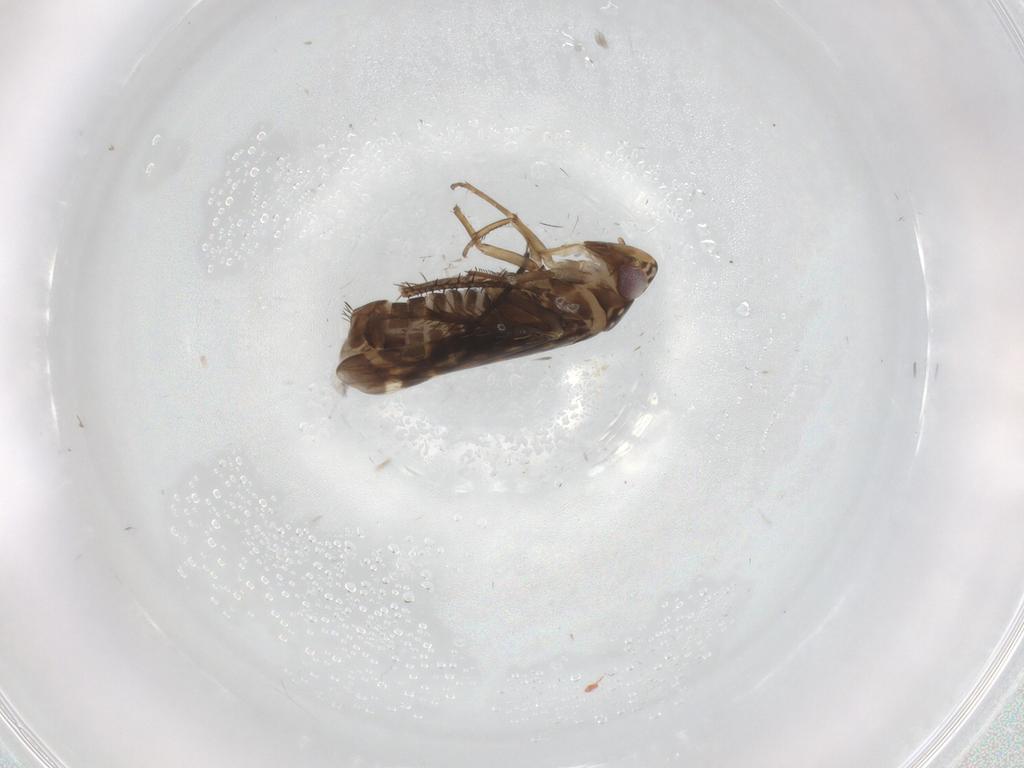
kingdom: Animalia
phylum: Arthropoda
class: Insecta
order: Hemiptera
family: Cicadellidae
